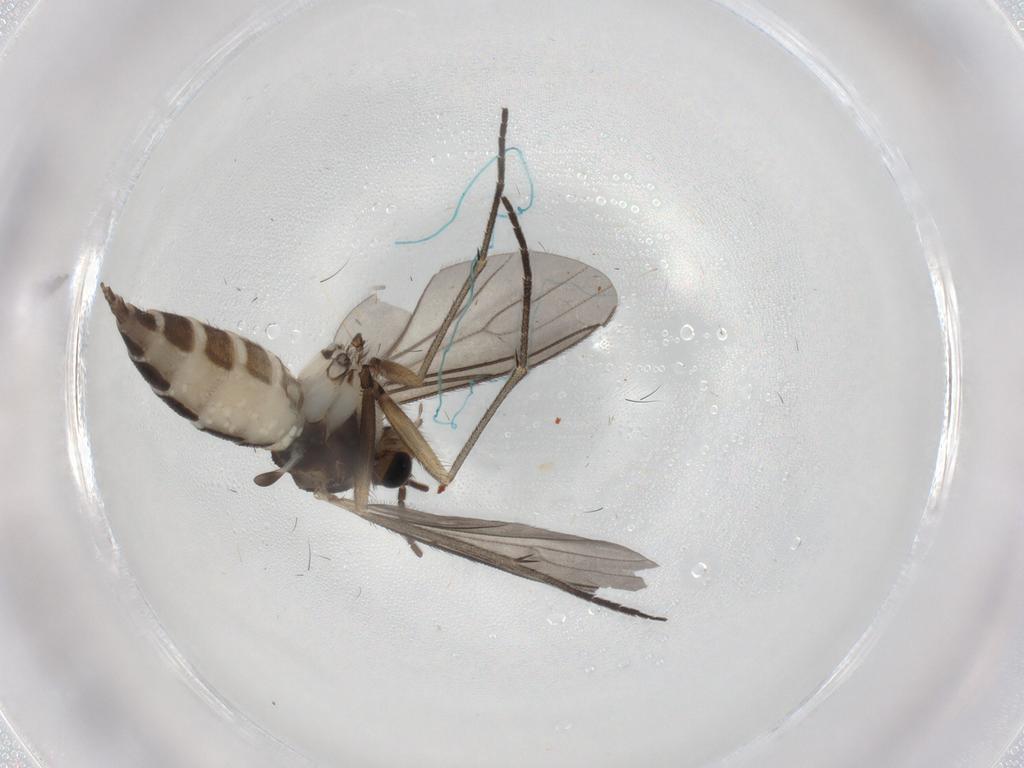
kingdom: Animalia
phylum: Arthropoda
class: Insecta
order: Diptera
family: Sciaridae
